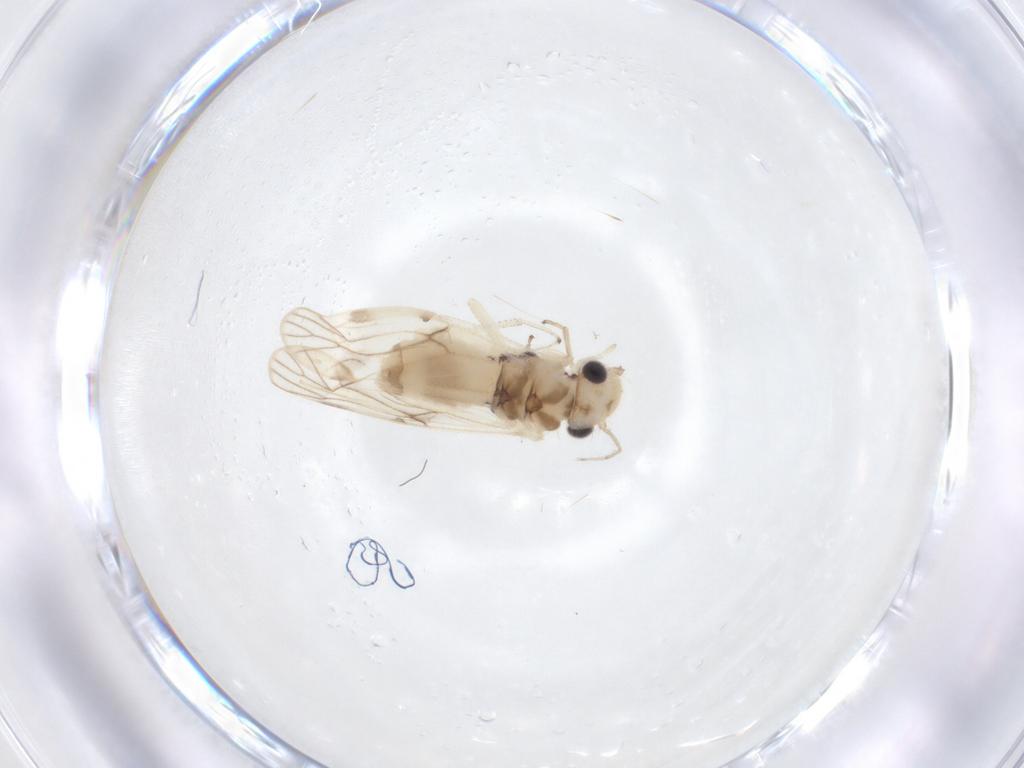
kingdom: Animalia
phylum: Arthropoda
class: Insecta
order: Psocodea
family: Caeciliusidae
